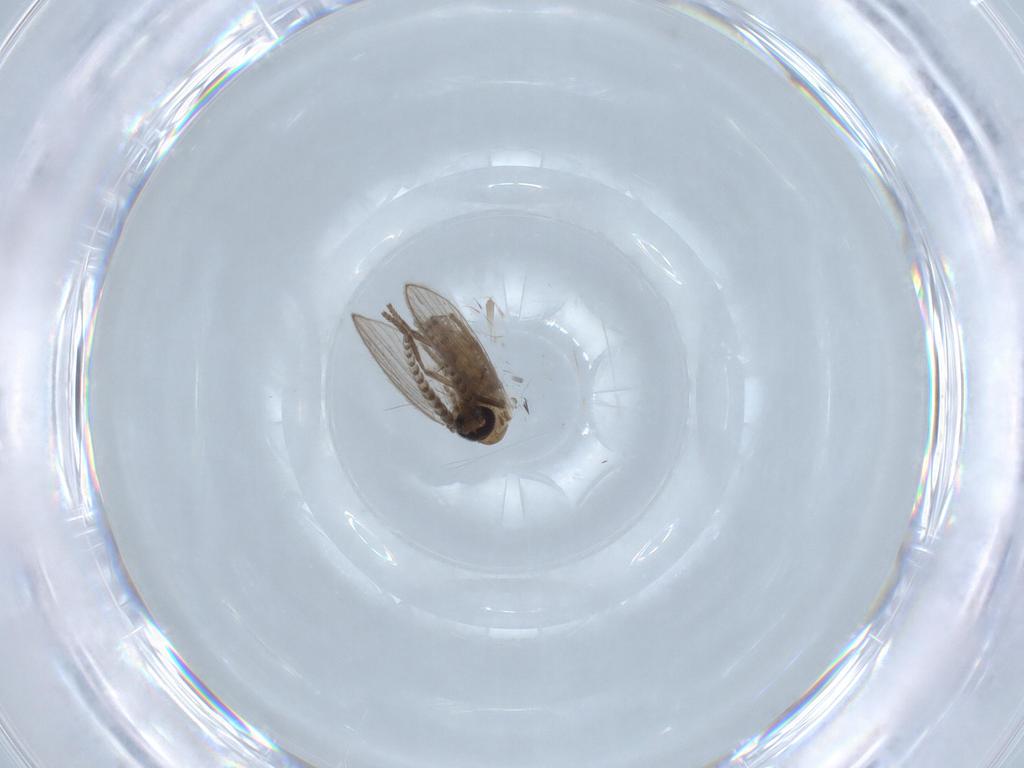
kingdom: Animalia
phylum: Arthropoda
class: Insecta
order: Diptera
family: Psychodidae
